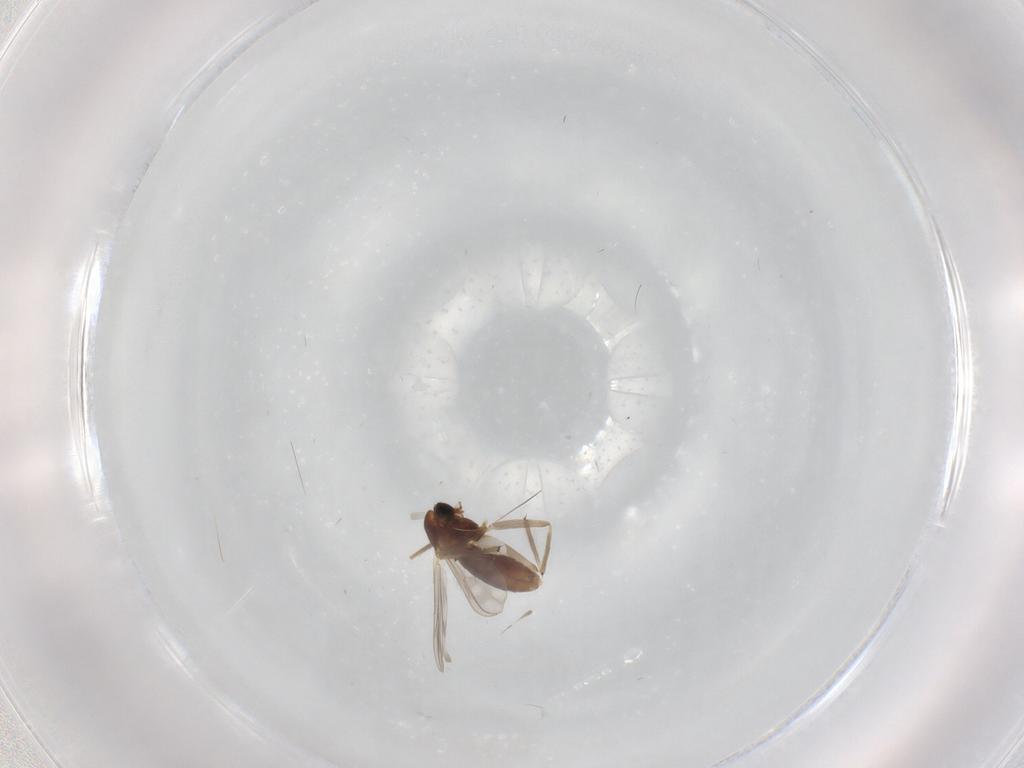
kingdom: Animalia
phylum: Arthropoda
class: Insecta
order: Diptera
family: Chironomidae
